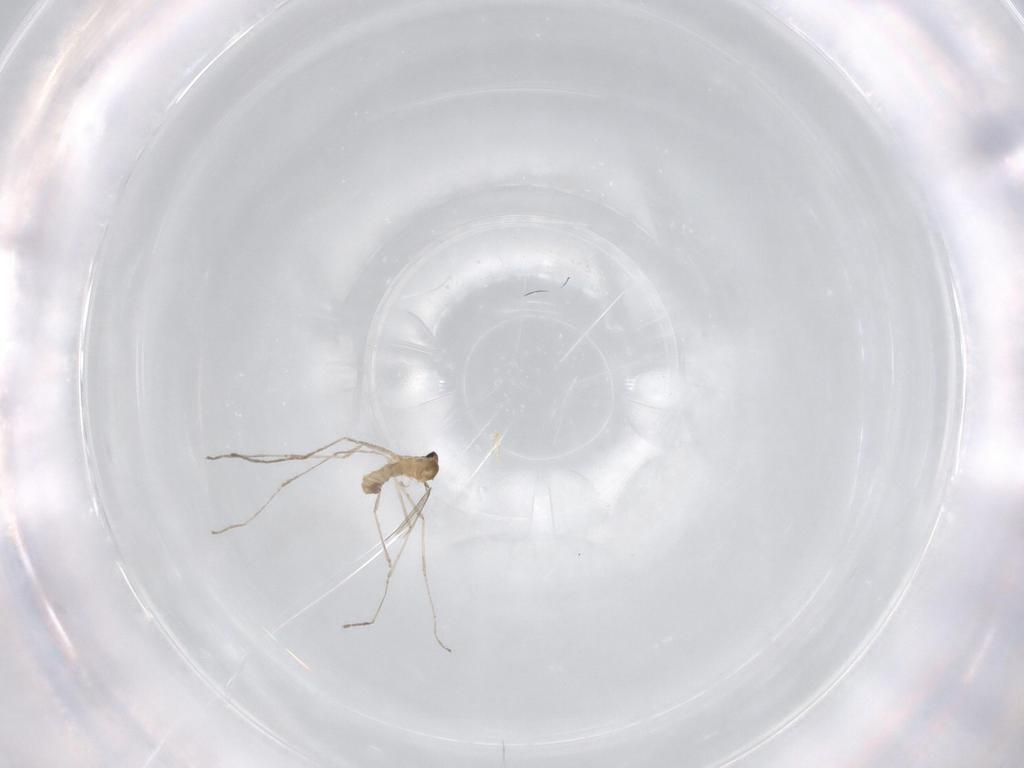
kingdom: Animalia
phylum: Arthropoda
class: Insecta
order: Diptera
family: Cecidomyiidae
